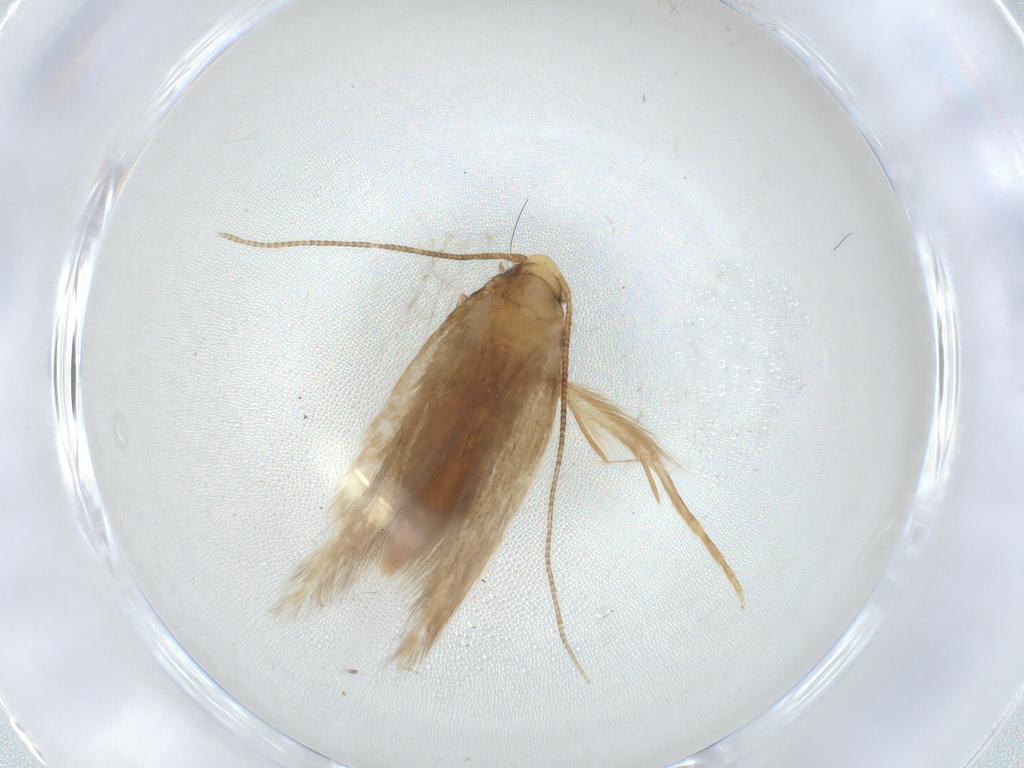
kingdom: Animalia
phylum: Arthropoda
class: Insecta
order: Lepidoptera
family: Tineidae
